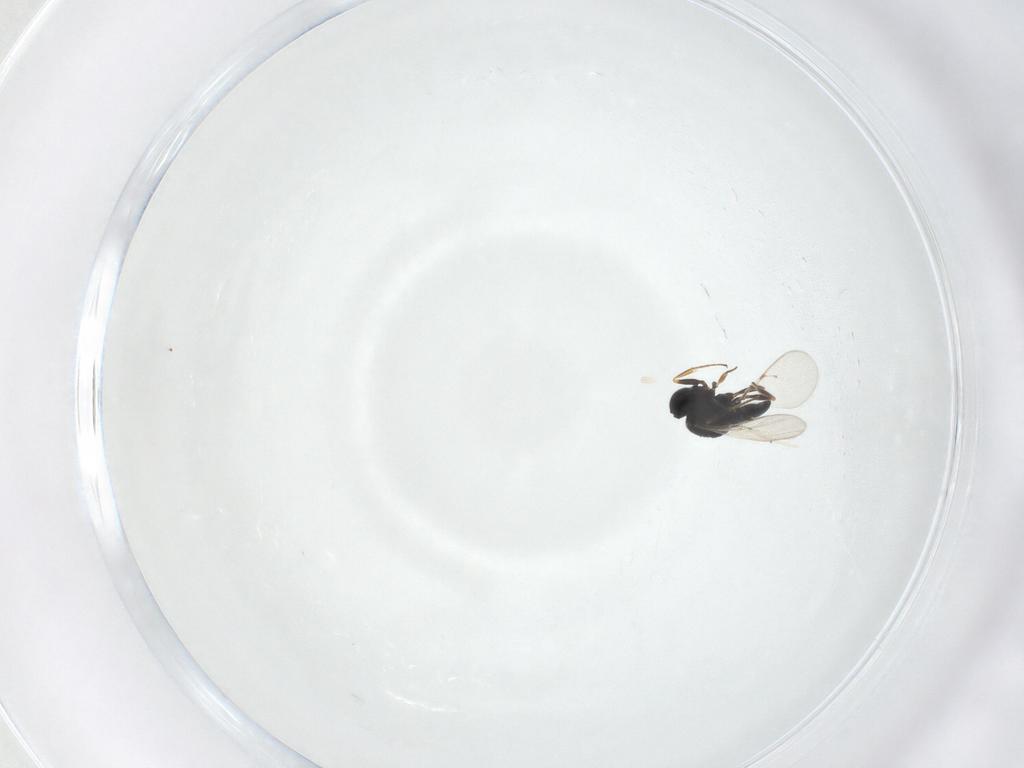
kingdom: Animalia
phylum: Arthropoda
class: Insecta
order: Hymenoptera
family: Scelionidae
